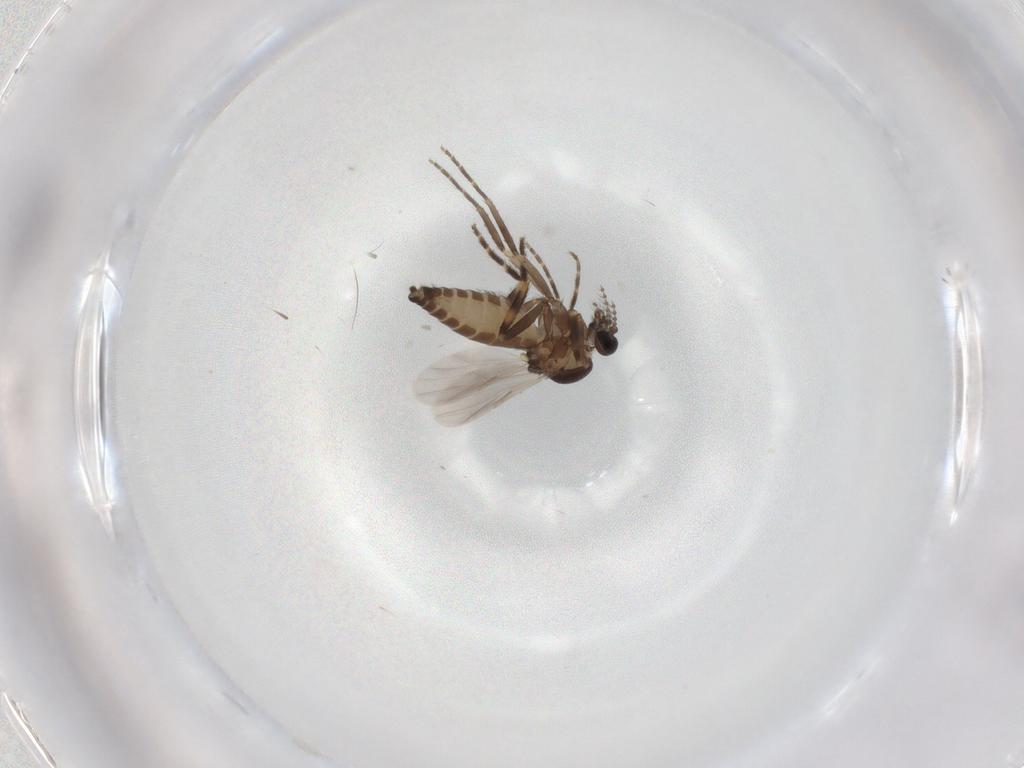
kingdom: Animalia
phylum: Arthropoda
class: Insecta
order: Diptera
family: Ceratopogonidae
